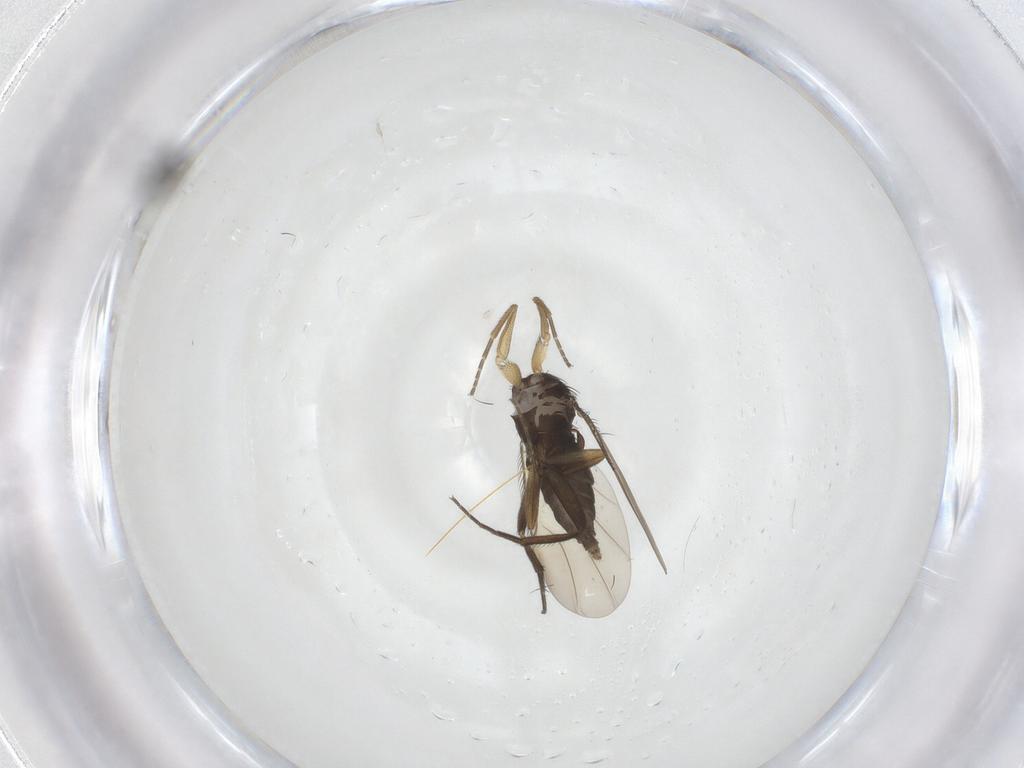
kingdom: Animalia
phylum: Arthropoda
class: Insecta
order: Diptera
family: Phoridae
